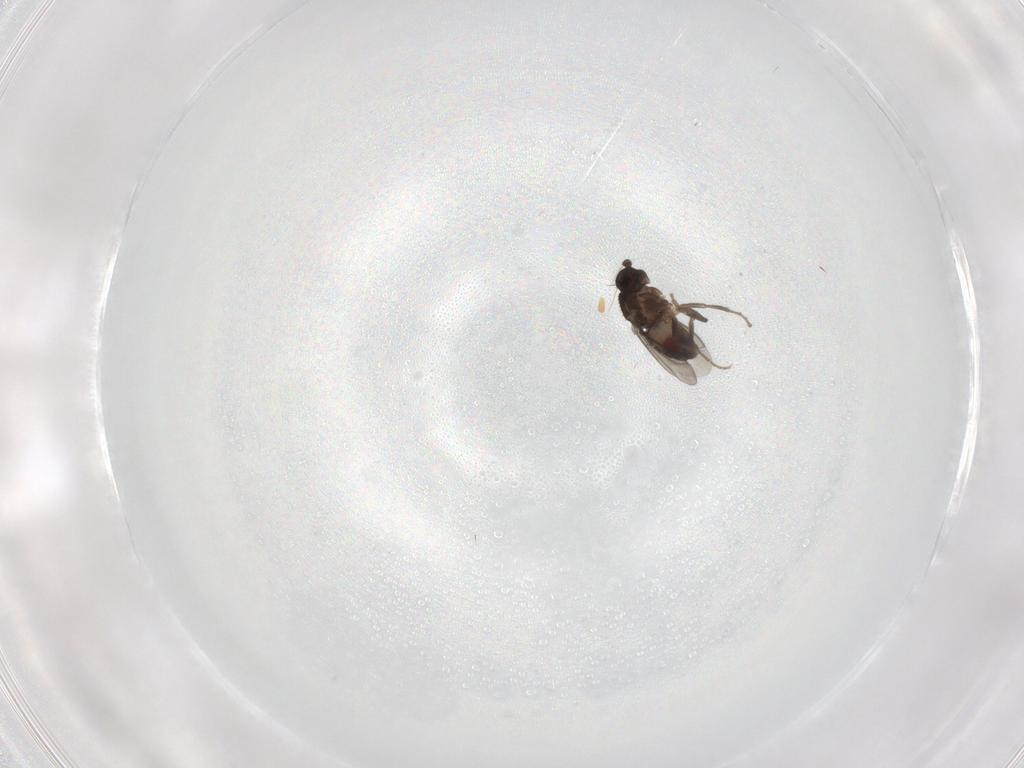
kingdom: Animalia
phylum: Arthropoda
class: Insecta
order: Diptera
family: Sphaeroceridae
